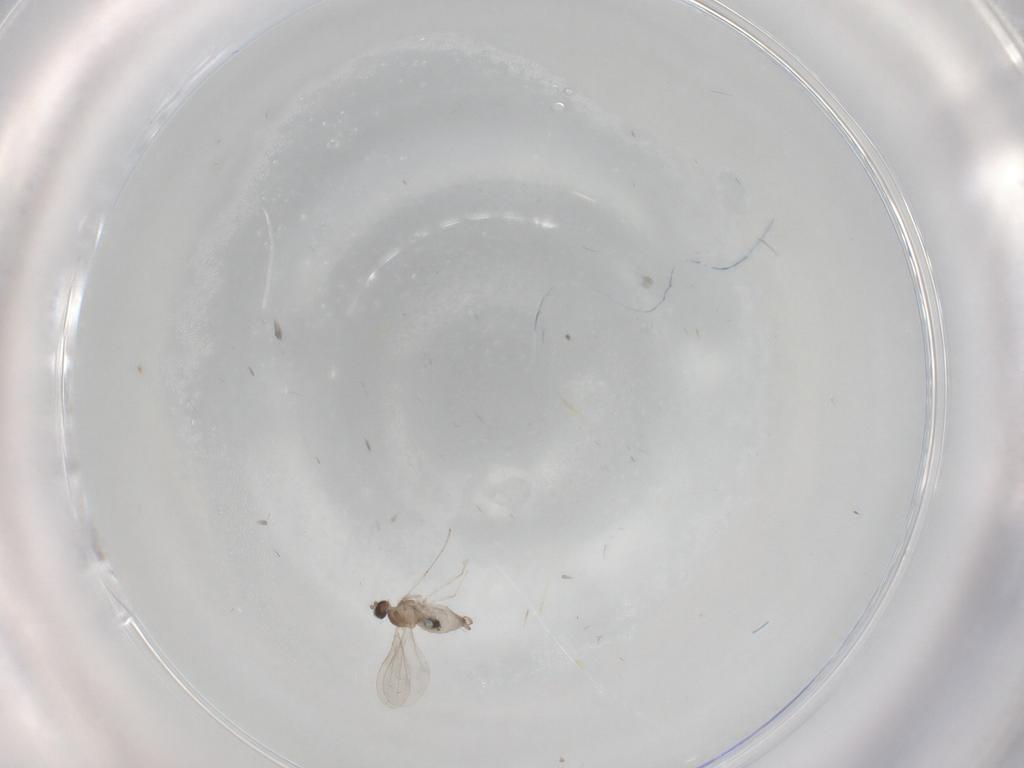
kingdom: Animalia
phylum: Arthropoda
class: Insecta
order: Diptera
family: Cecidomyiidae
